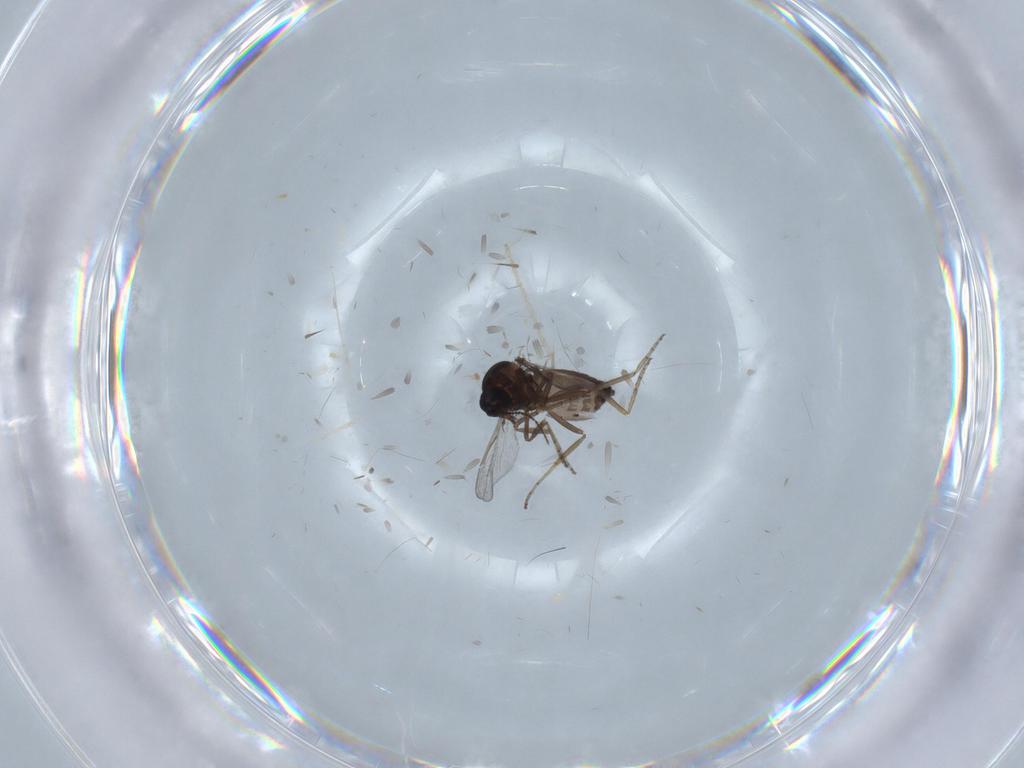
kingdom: Animalia
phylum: Arthropoda
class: Insecta
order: Diptera
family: Ceratopogonidae
